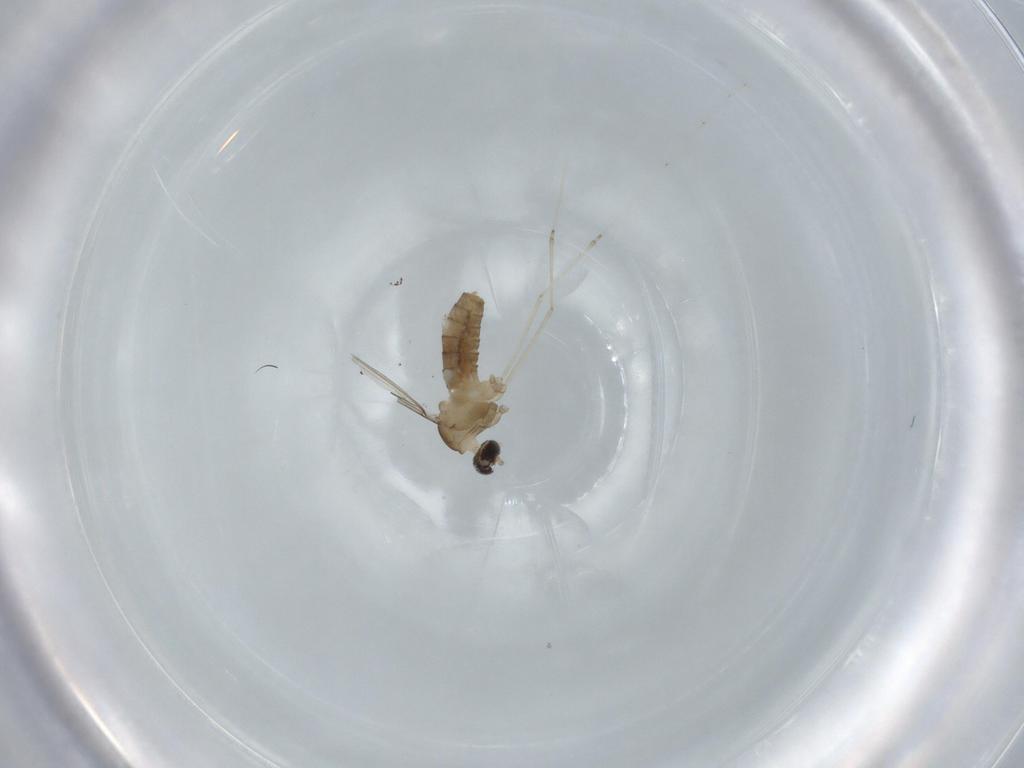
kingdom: Animalia
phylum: Arthropoda
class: Insecta
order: Diptera
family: Cecidomyiidae
